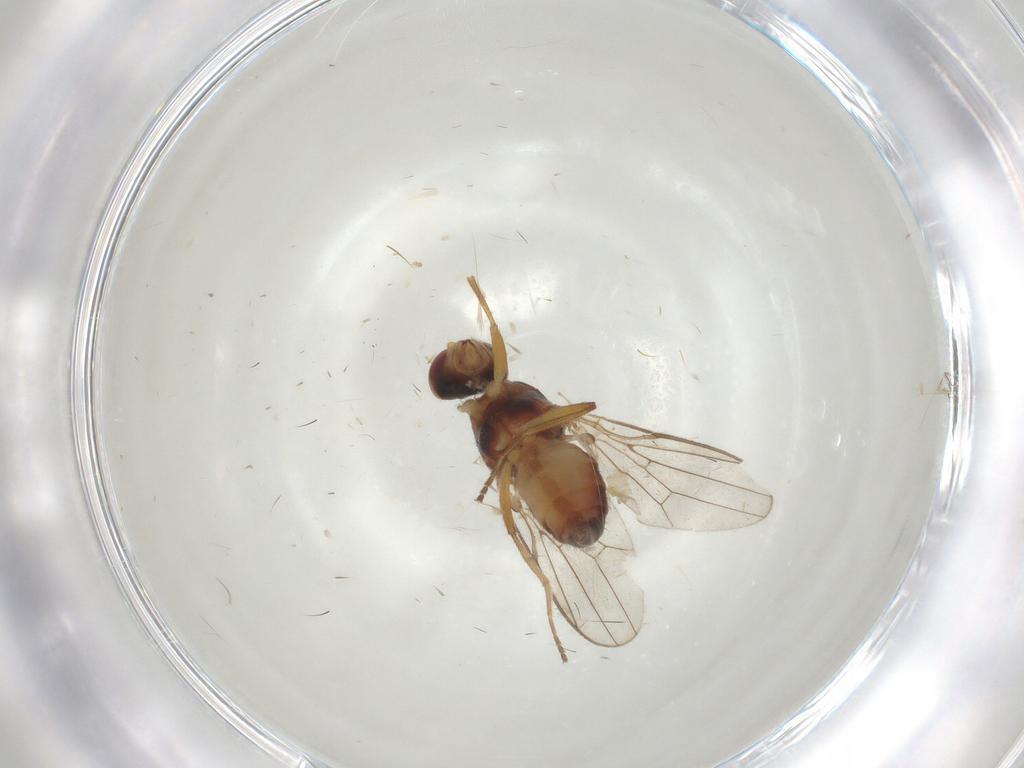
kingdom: Animalia
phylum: Arthropoda
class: Insecta
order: Diptera
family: Chloropidae
